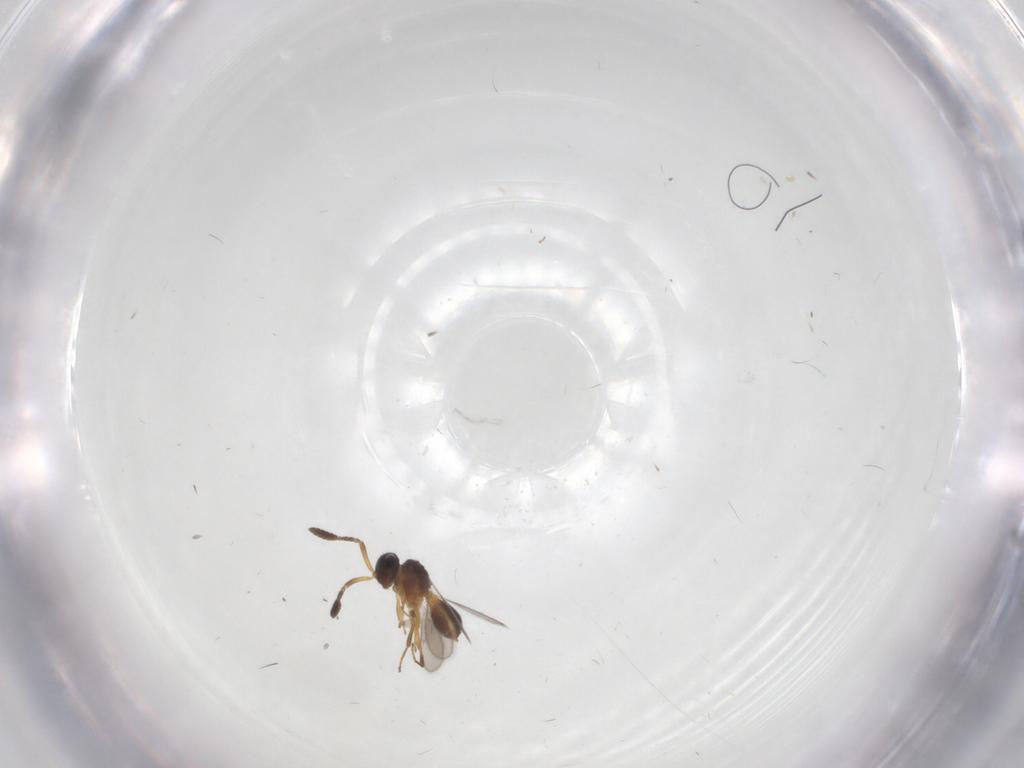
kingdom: Animalia
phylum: Arthropoda
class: Insecta
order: Hymenoptera
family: Scelionidae
